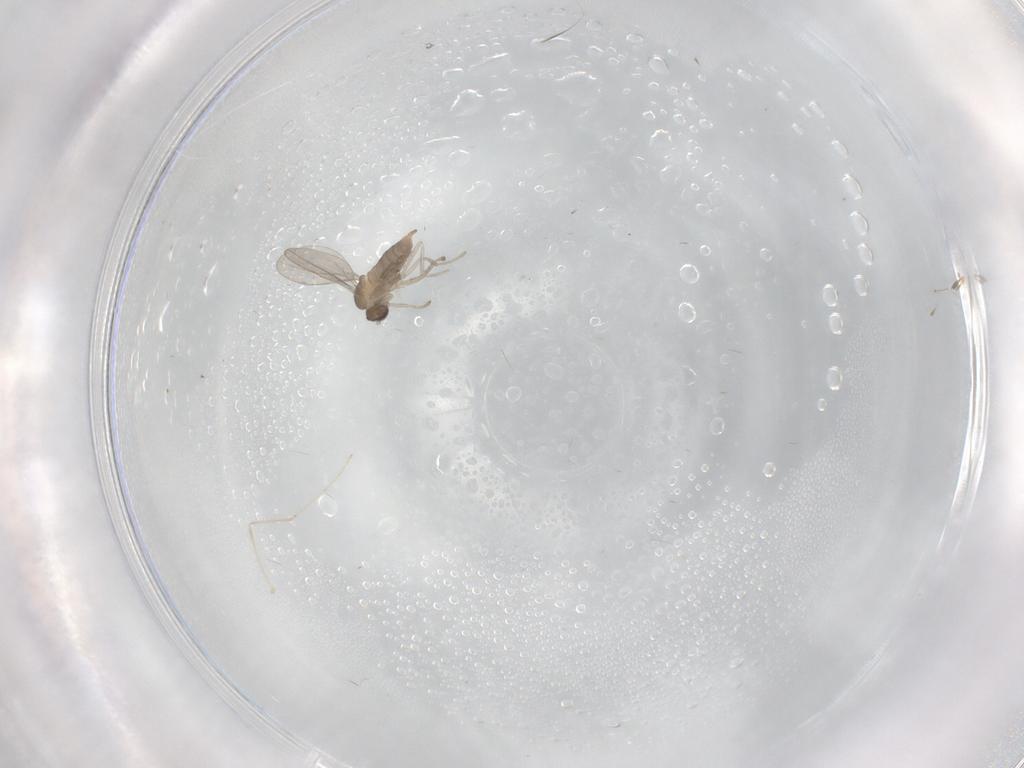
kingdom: Animalia
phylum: Arthropoda
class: Insecta
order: Diptera
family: Cecidomyiidae
